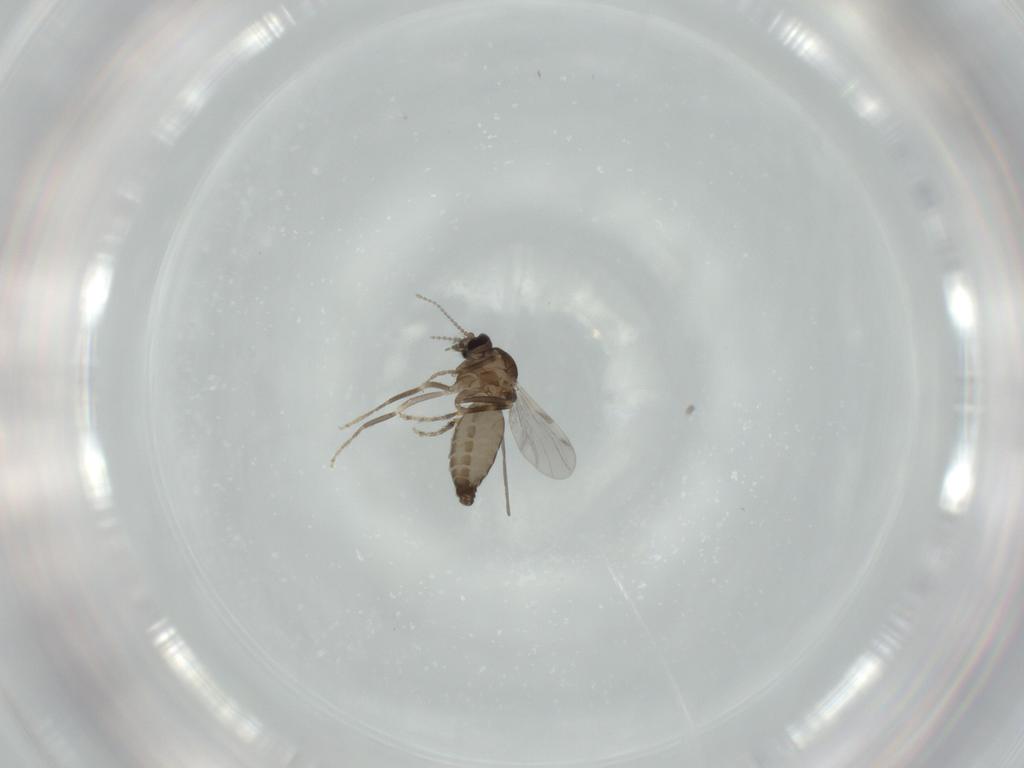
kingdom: Animalia
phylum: Arthropoda
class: Insecta
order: Diptera
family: Ceratopogonidae
